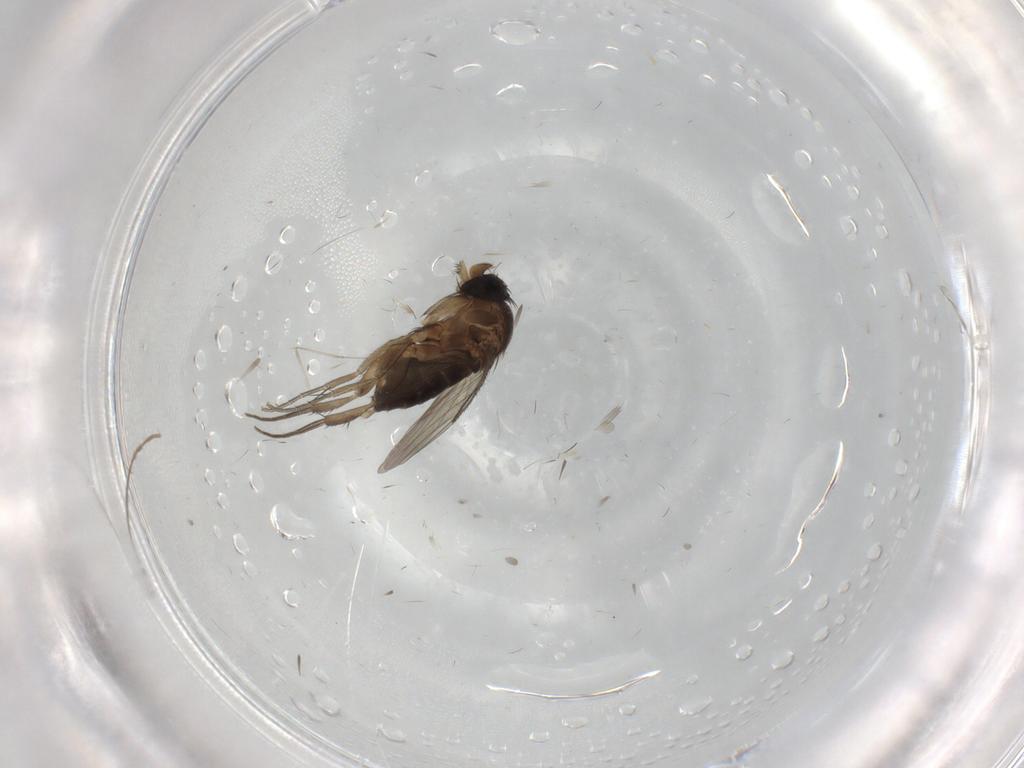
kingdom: Animalia
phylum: Arthropoda
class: Insecta
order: Diptera
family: Phoridae
